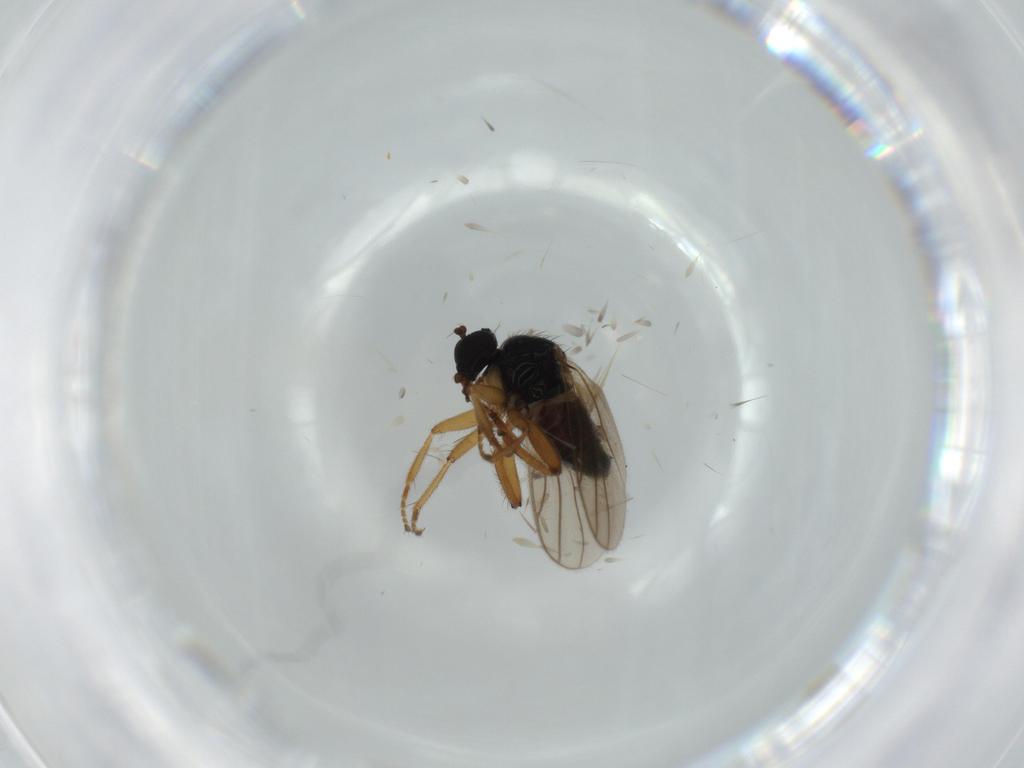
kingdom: Animalia
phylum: Arthropoda
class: Insecta
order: Diptera
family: Hybotidae
